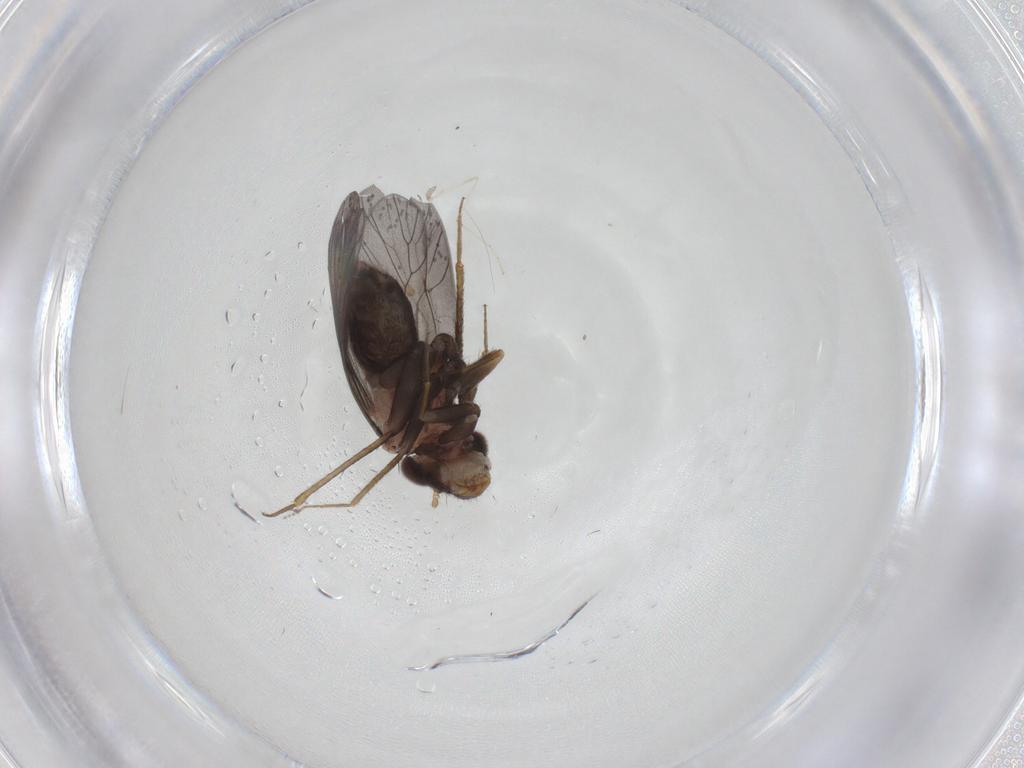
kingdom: Animalia
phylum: Arthropoda
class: Insecta
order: Psocodea
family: Lepidopsocidae
